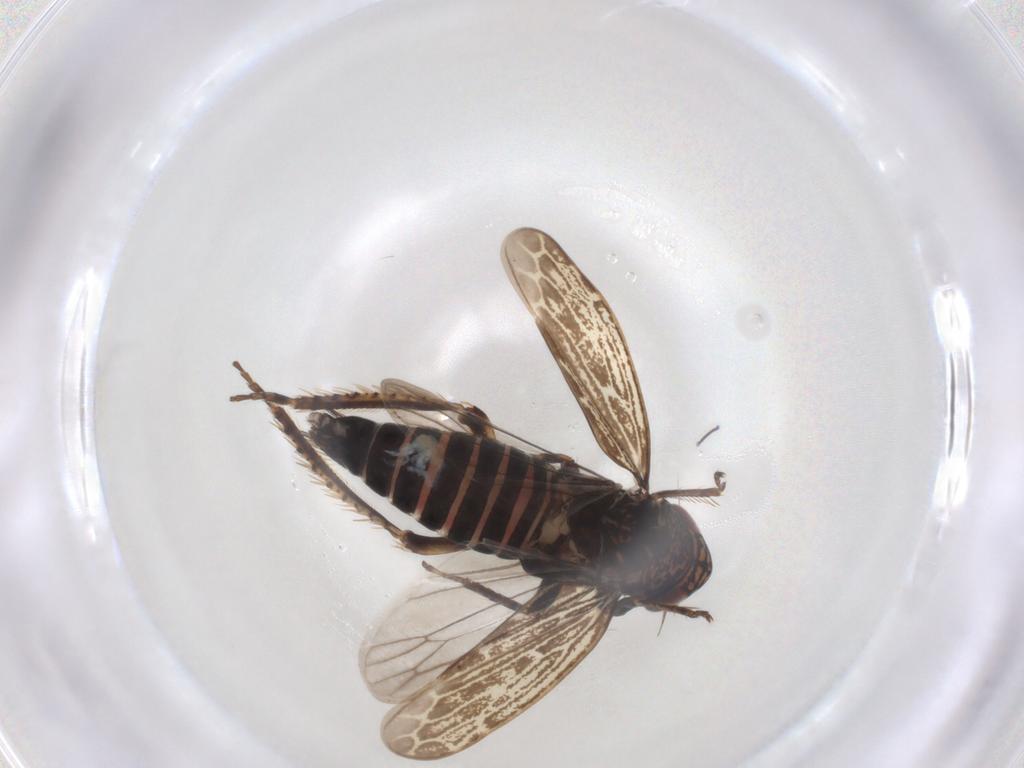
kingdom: Animalia
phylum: Arthropoda
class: Insecta
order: Hemiptera
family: Cicadellidae
